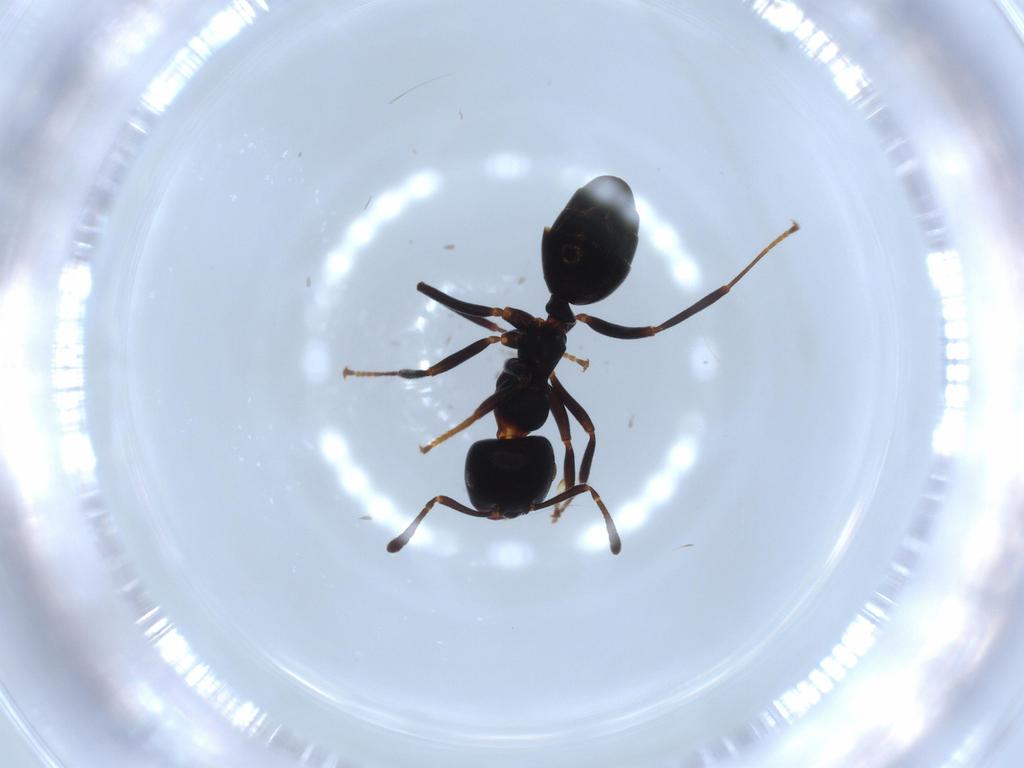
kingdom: Animalia
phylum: Arthropoda
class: Insecta
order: Hymenoptera
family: Formicidae
